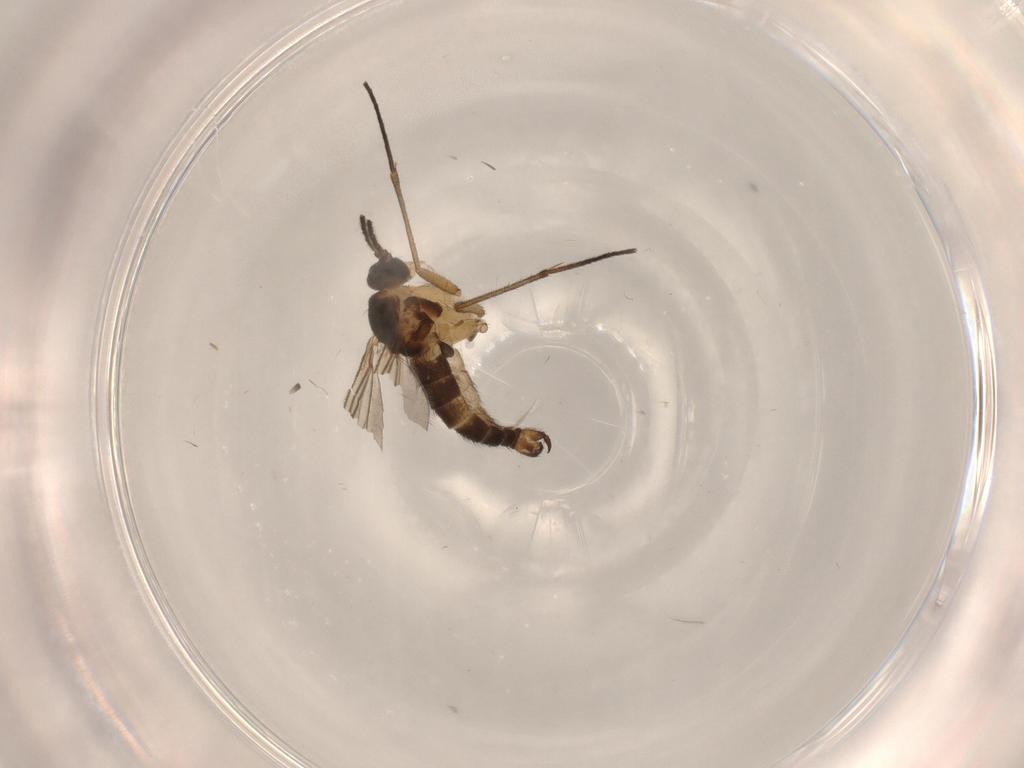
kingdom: Animalia
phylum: Arthropoda
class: Insecta
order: Diptera
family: Sciaridae
